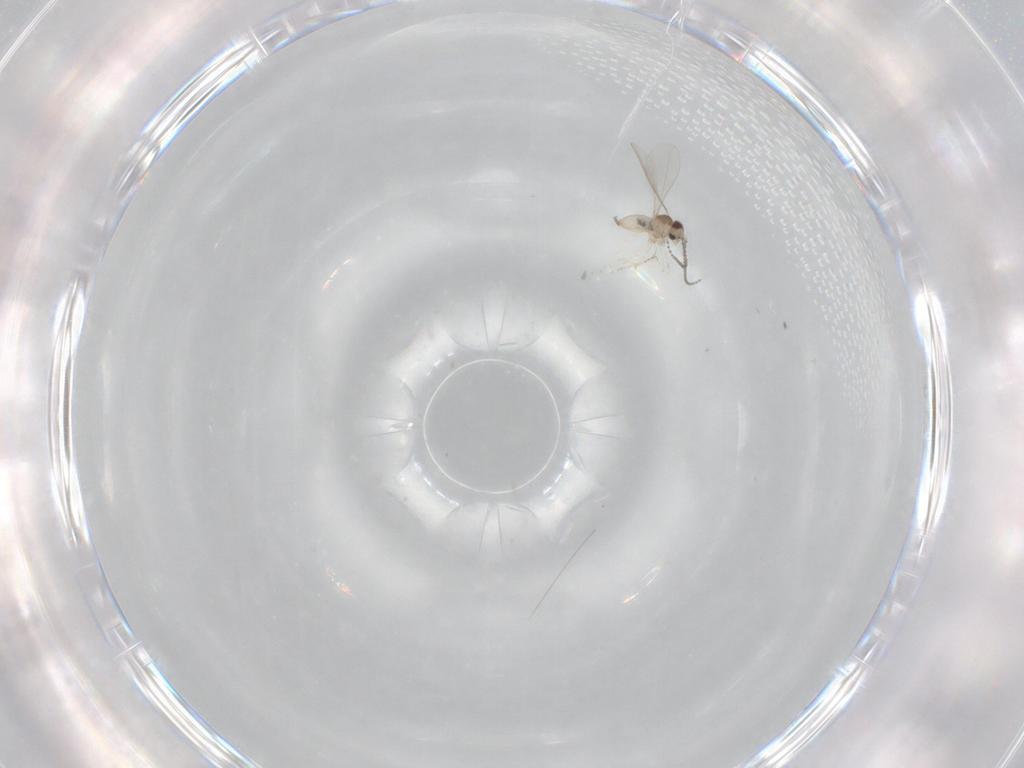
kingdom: Animalia
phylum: Arthropoda
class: Insecta
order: Diptera
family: Cecidomyiidae
